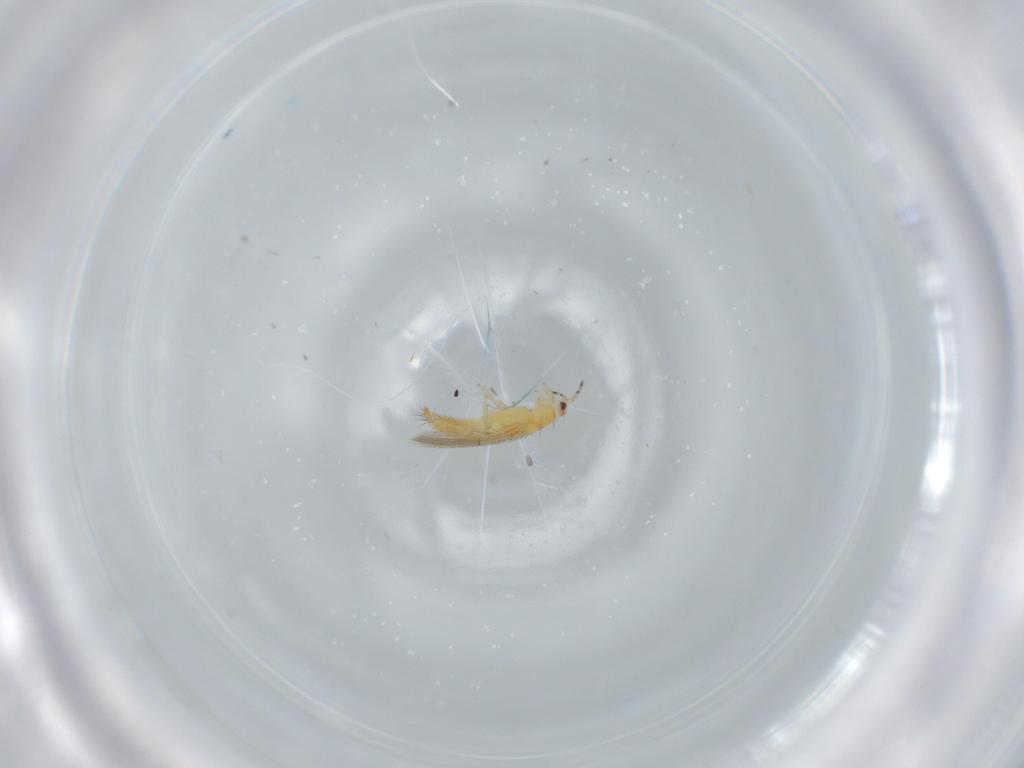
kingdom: Animalia
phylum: Arthropoda
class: Insecta
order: Thysanoptera
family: Thripidae
